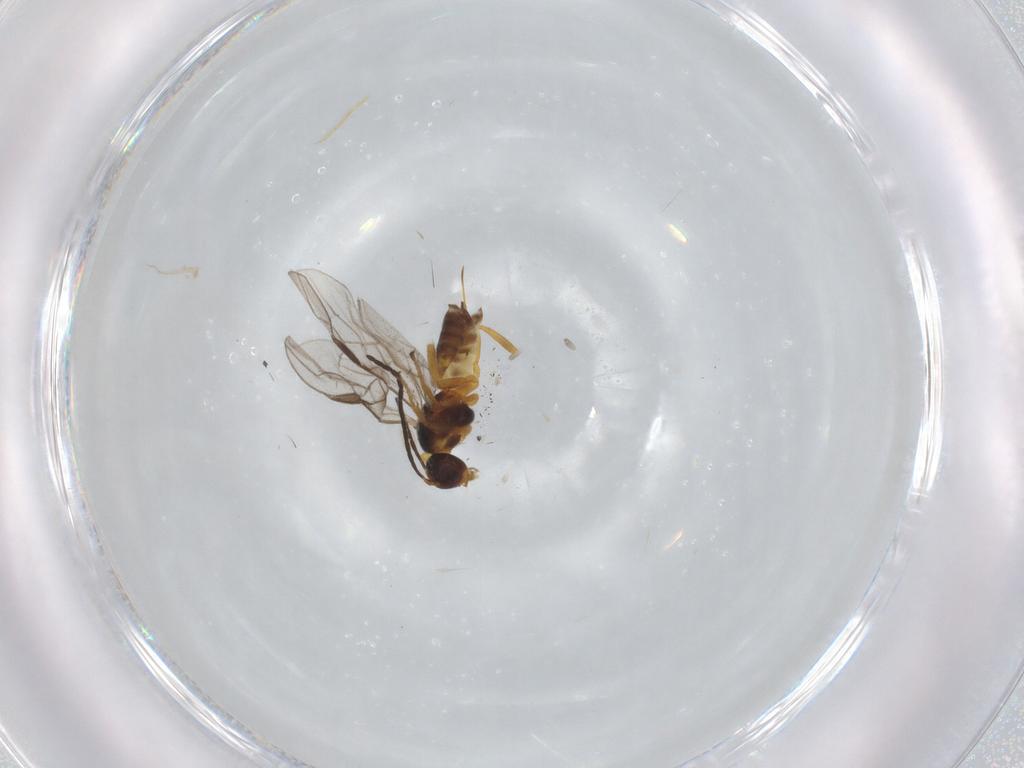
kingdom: Animalia
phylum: Arthropoda
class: Insecta
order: Hymenoptera
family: Braconidae
